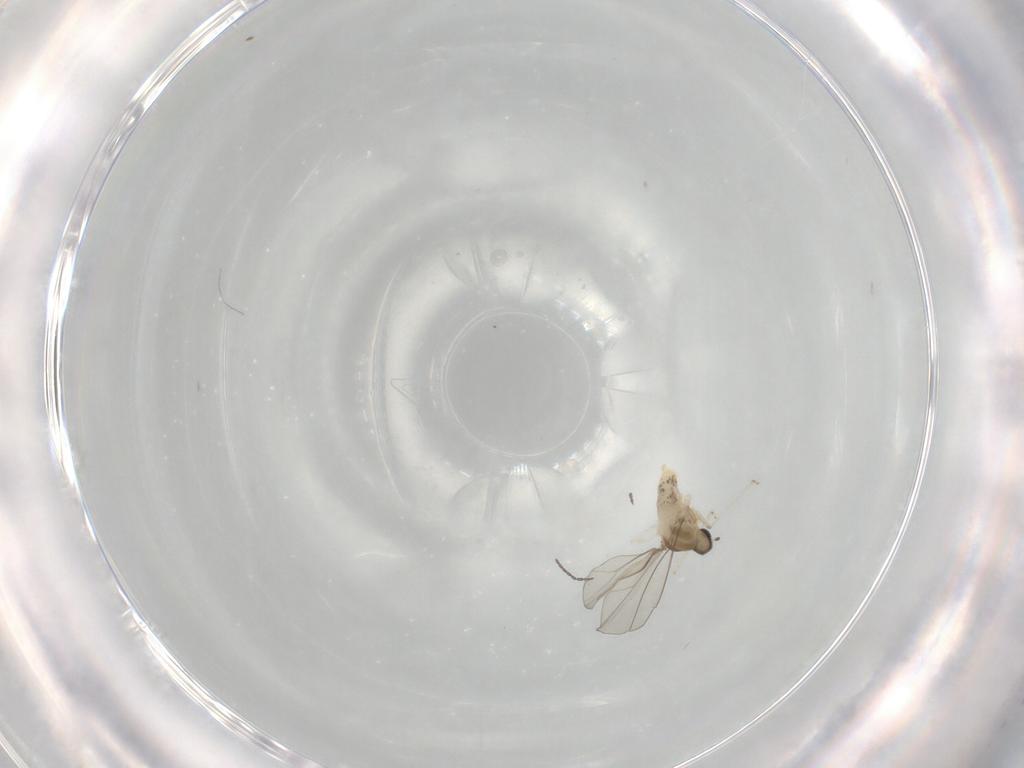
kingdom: Animalia
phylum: Arthropoda
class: Insecta
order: Diptera
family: Cecidomyiidae
